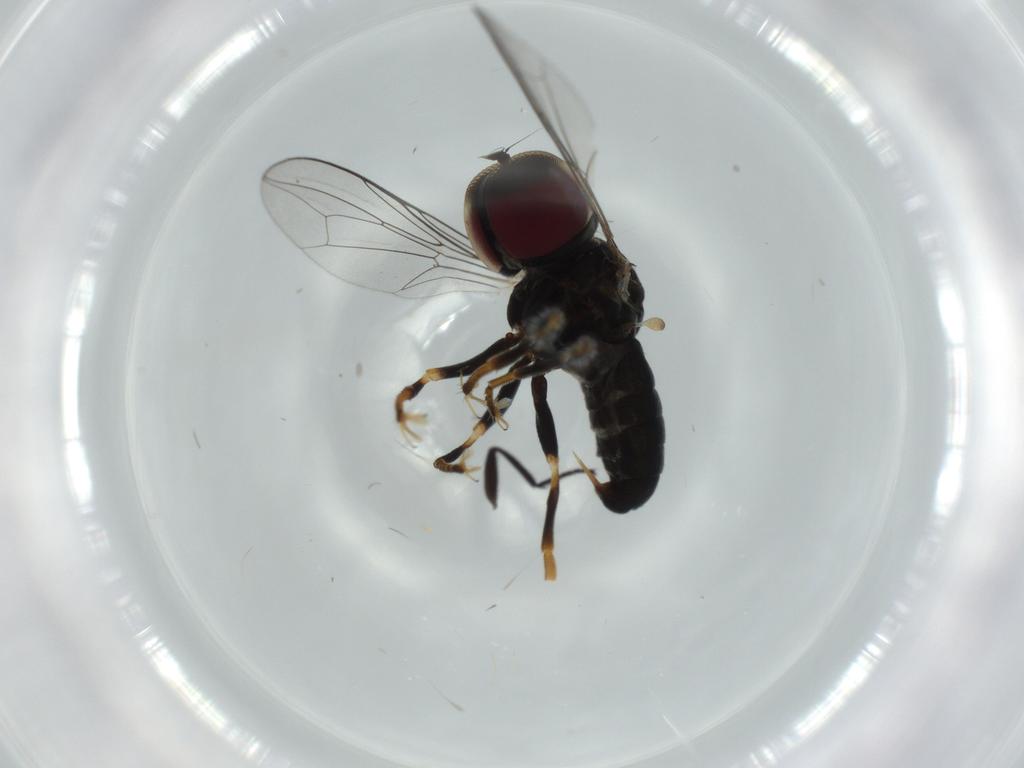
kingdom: Animalia
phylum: Arthropoda
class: Insecta
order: Diptera
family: Pipunculidae
